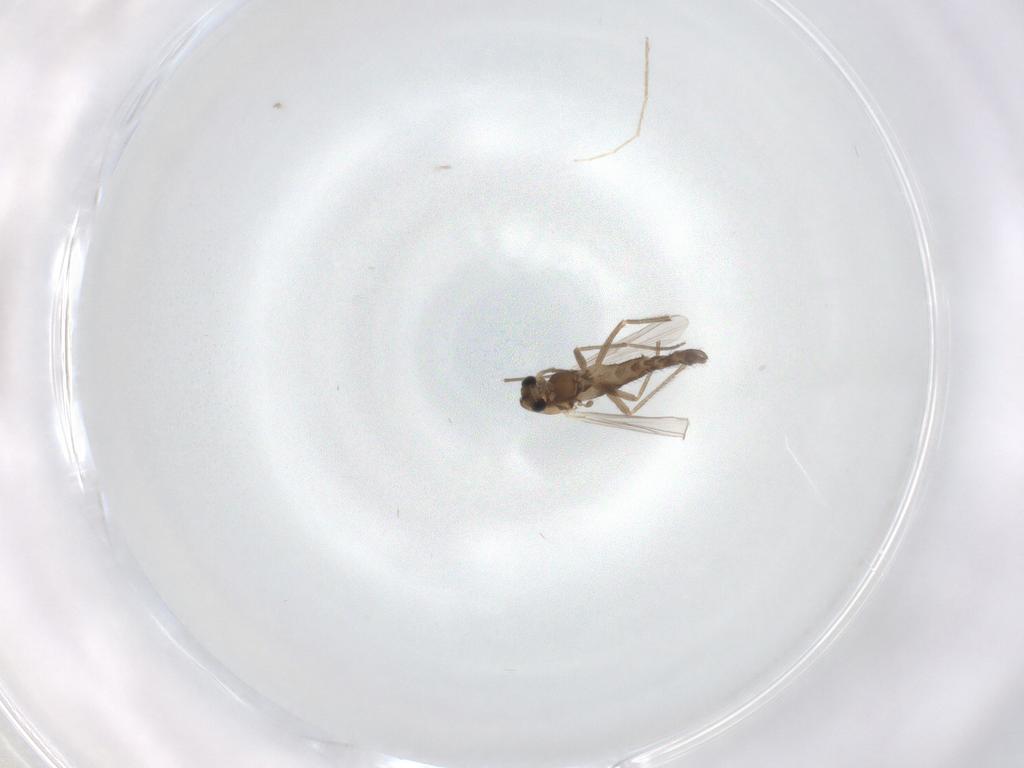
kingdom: Animalia
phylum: Arthropoda
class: Insecta
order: Diptera
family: Chironomidae
